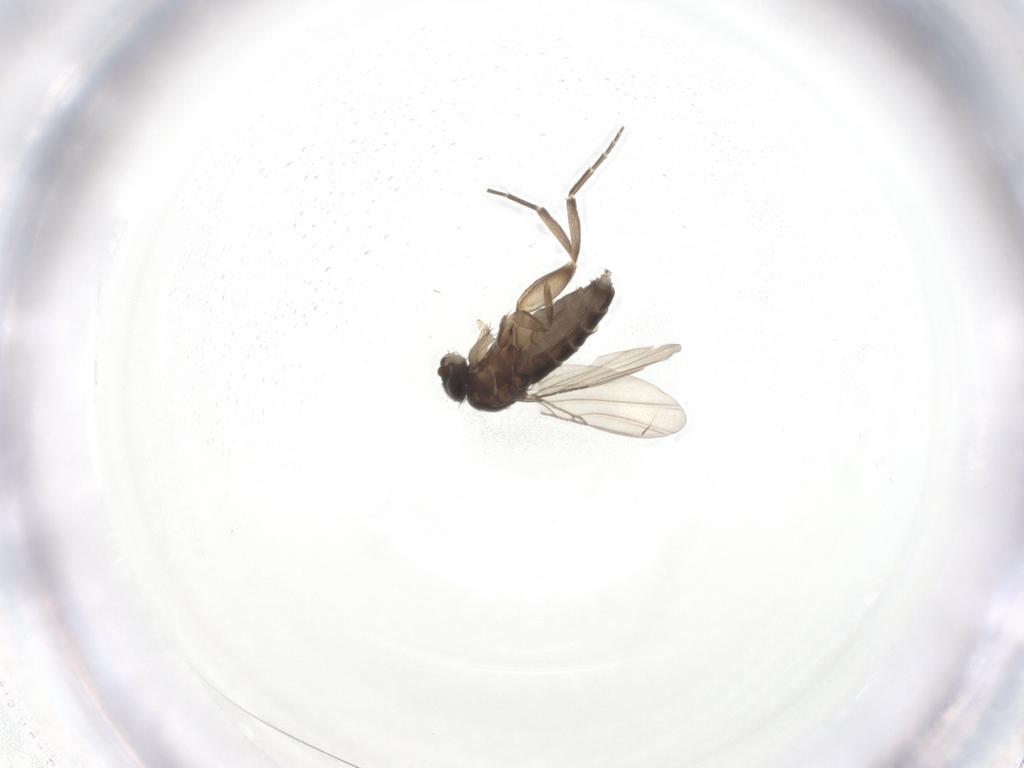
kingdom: Animalia
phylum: Arthropoda
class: Insecta
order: Diptera
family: Phoridae
